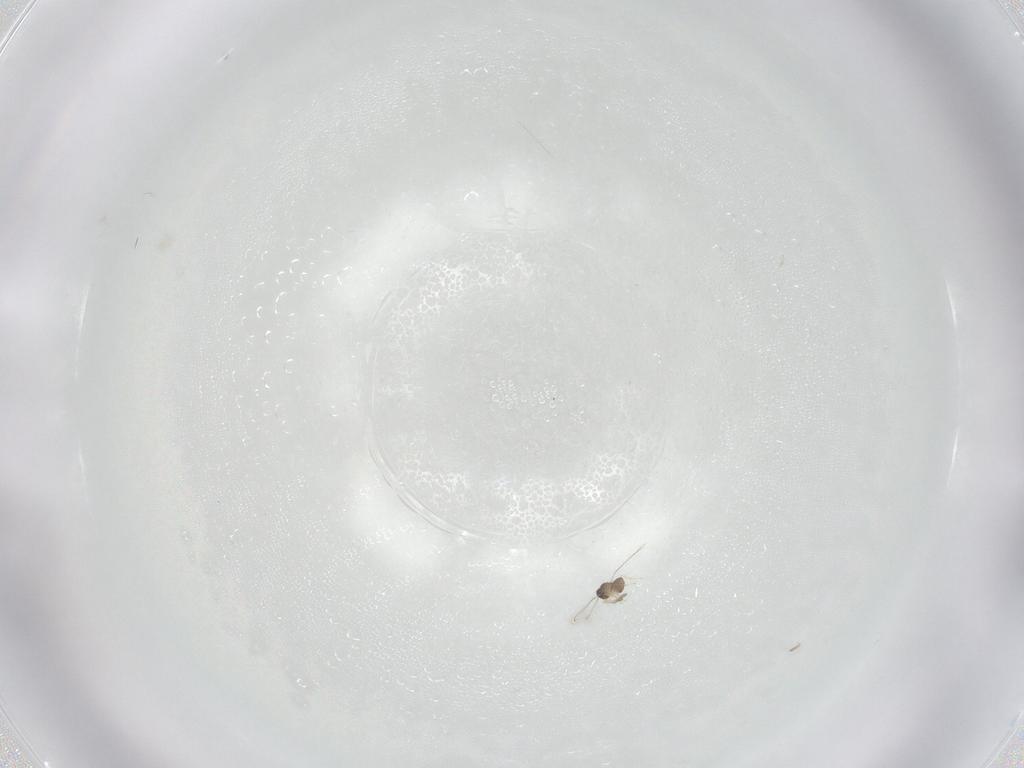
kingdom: Animalia
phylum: Arthropoda
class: Insecta
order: Hymenoptera
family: Mymaridae
